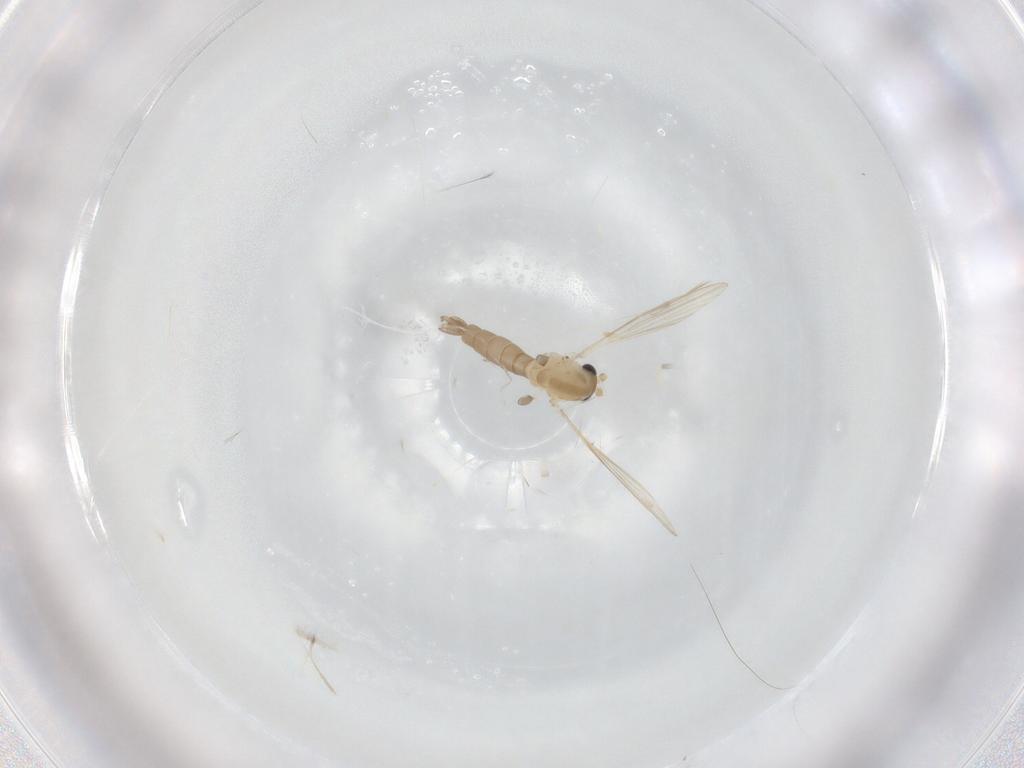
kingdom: Animalia
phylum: Arthropoda
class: Insecta
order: Diptera
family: Psychodidae
